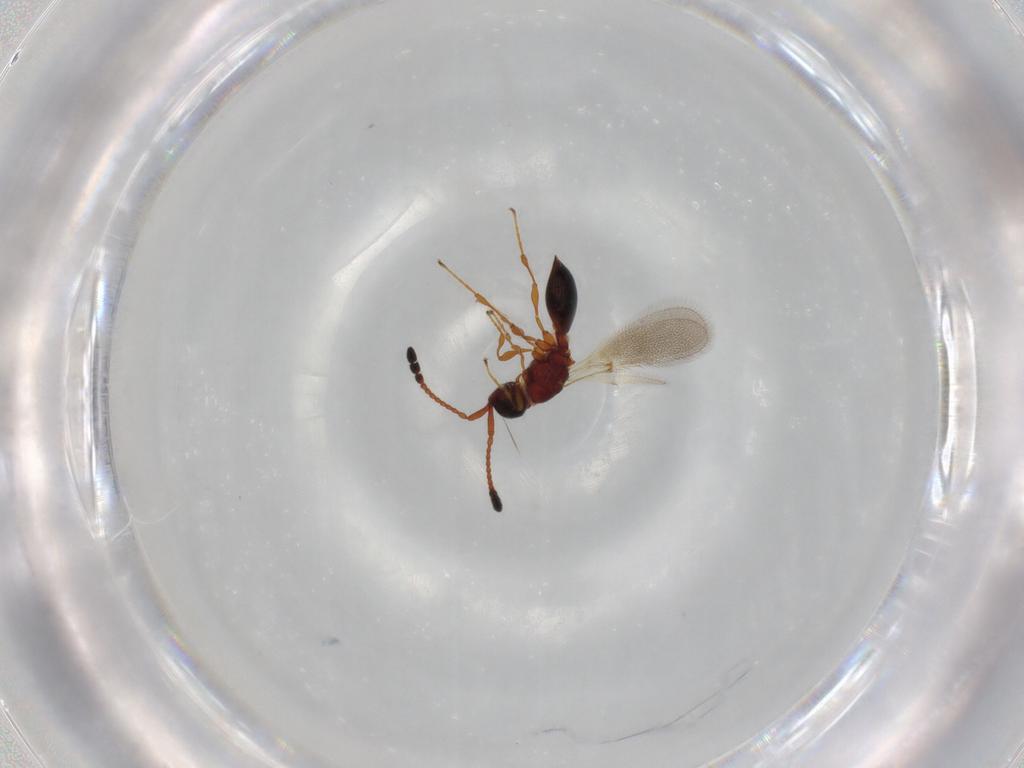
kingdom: Animalia
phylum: Arthropoda
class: Insecta
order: Hymenoptera
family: Diapriidae
